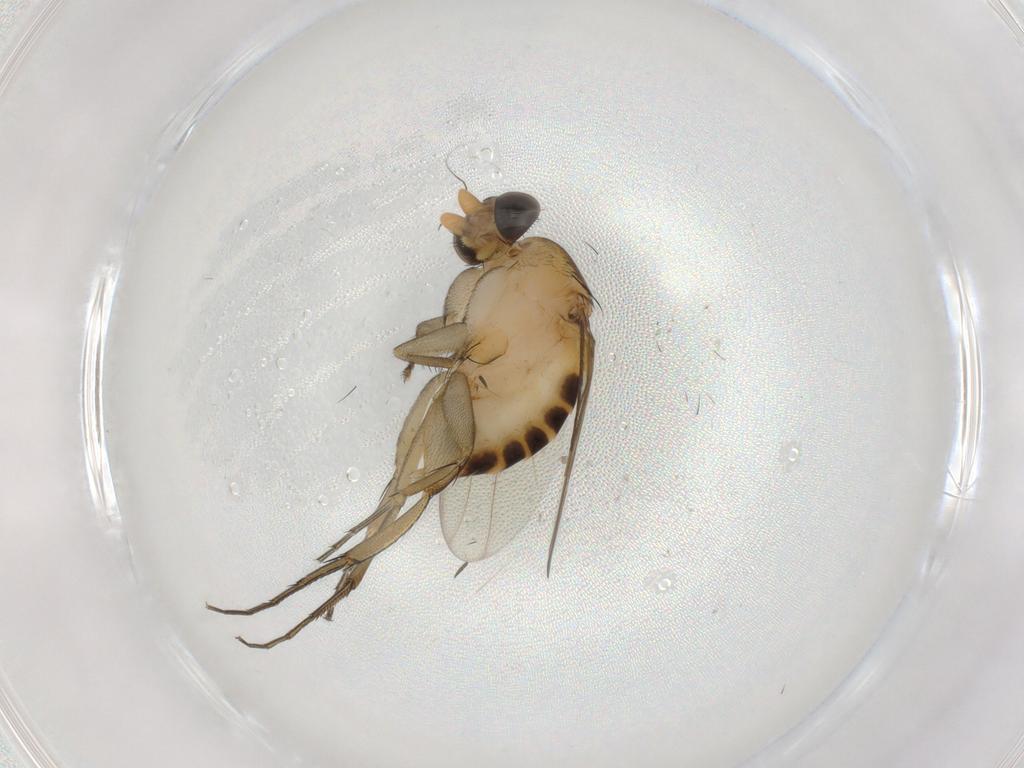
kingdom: Animalia
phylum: Arthropoda
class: Insecta
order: Diptera
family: Phoridae
